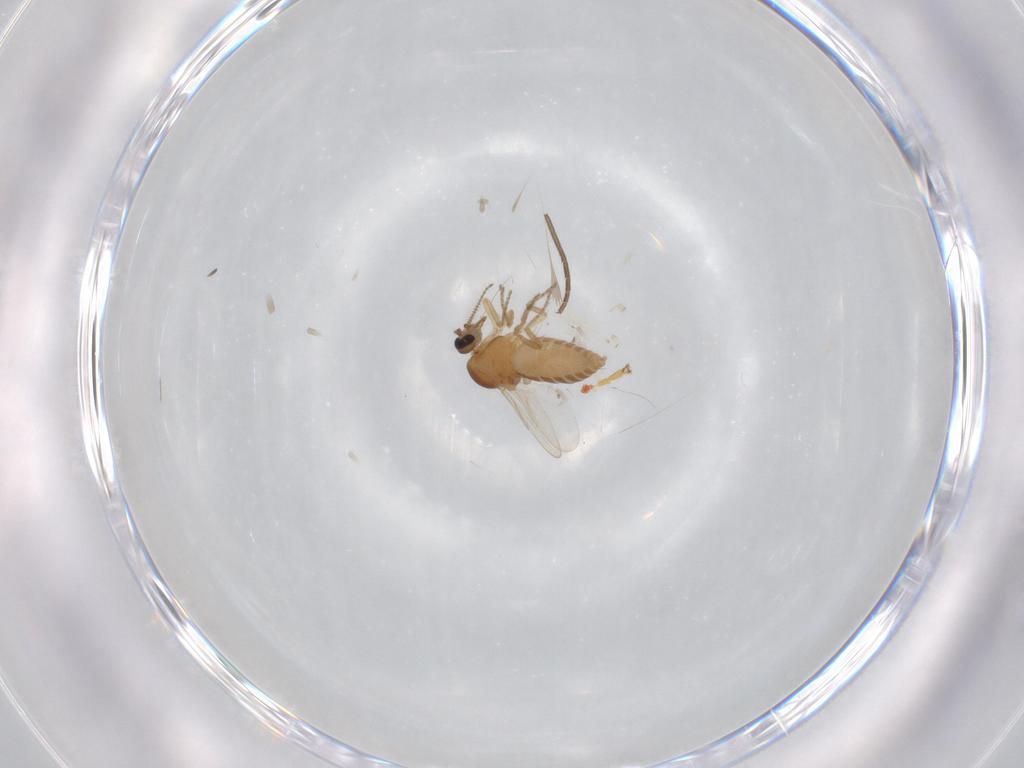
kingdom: Animalia
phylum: Arthropoda
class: Insecta
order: Diptera
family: Ceratopogonidae
